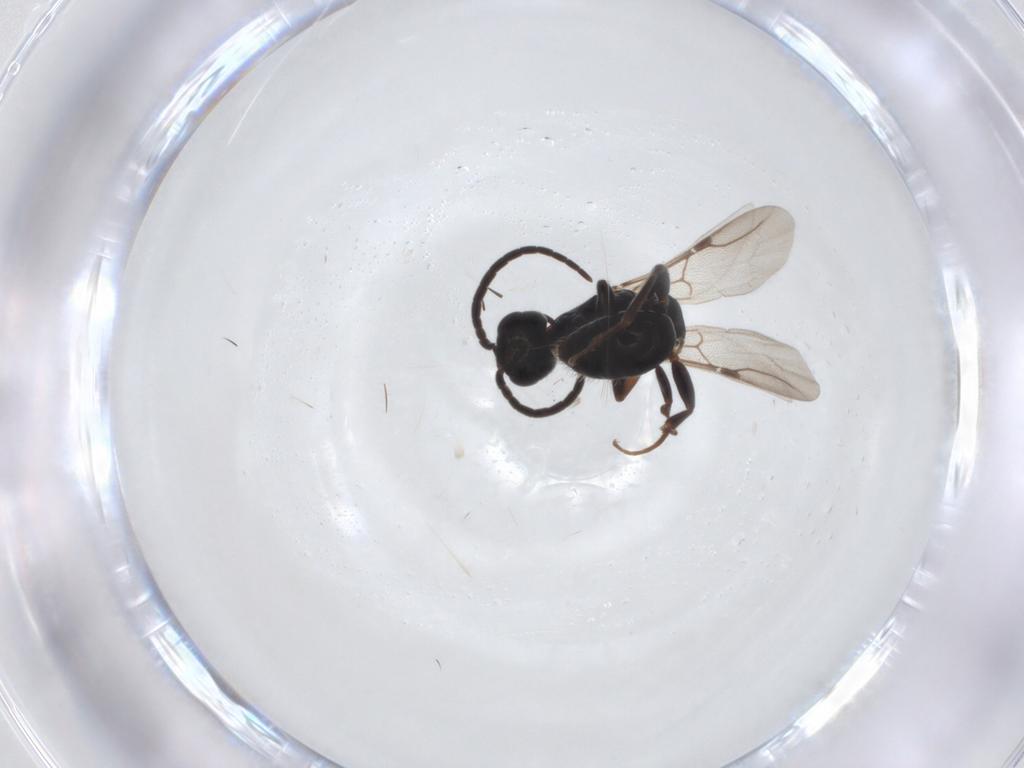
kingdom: Animalia
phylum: Arthropoda
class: Insecta
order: Hymenoptera
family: Bethylidae
